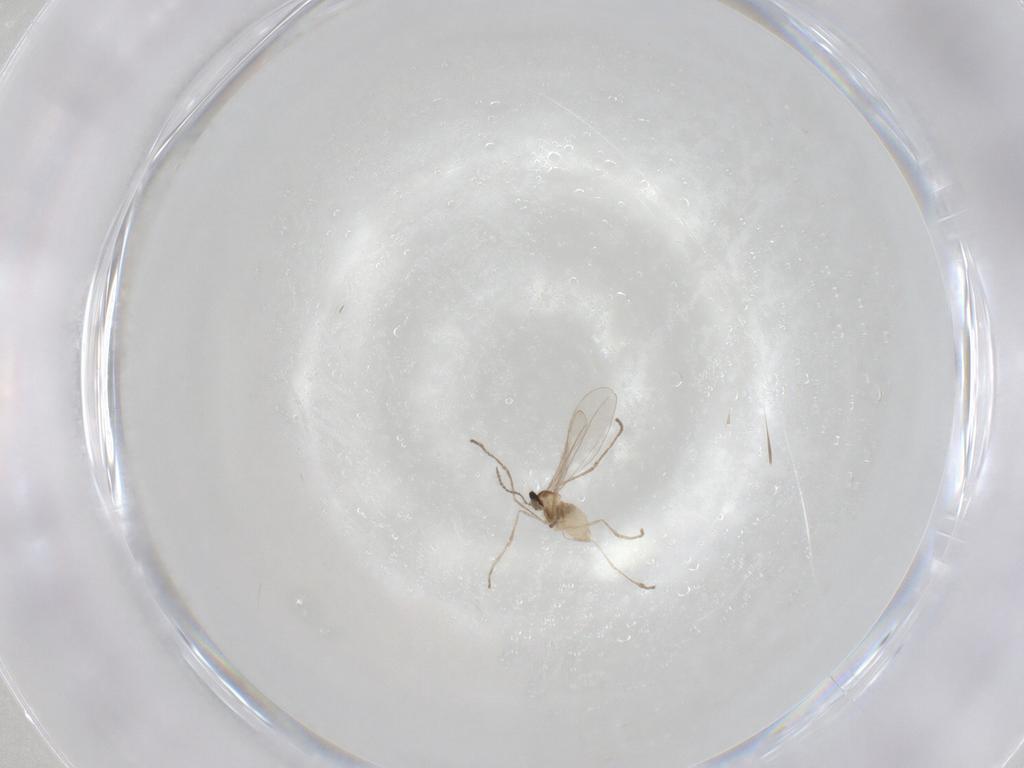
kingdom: Animalia
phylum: Arthropoda
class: Insecta
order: Diptera
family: Cecidomyiidae
